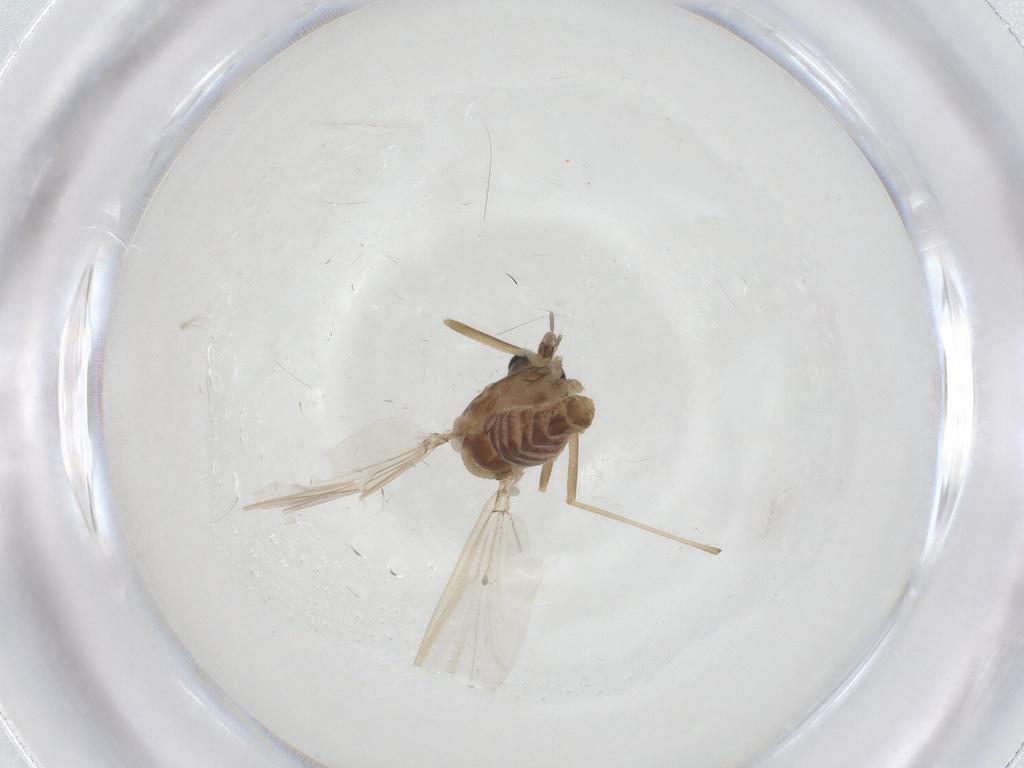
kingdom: Animalia
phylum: Arthropoda
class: Insecta
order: Diptera
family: Chironomidae
